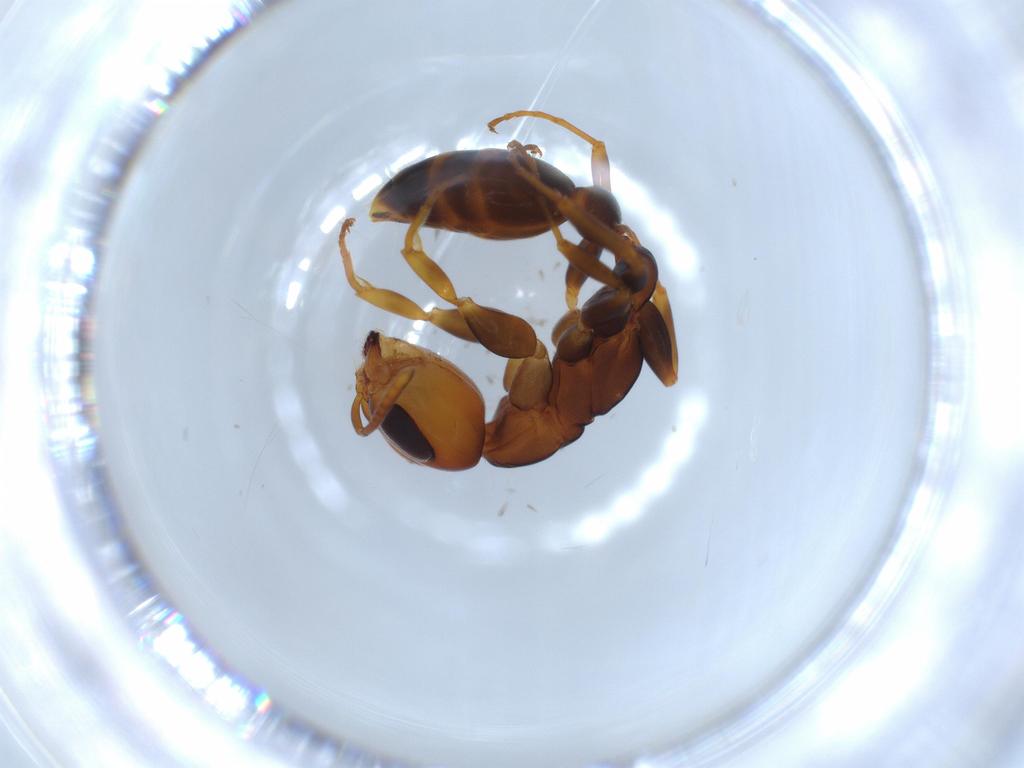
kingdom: Animalia
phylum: Arthropoda
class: Insecta
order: Hymenoptera
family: Formicidae
